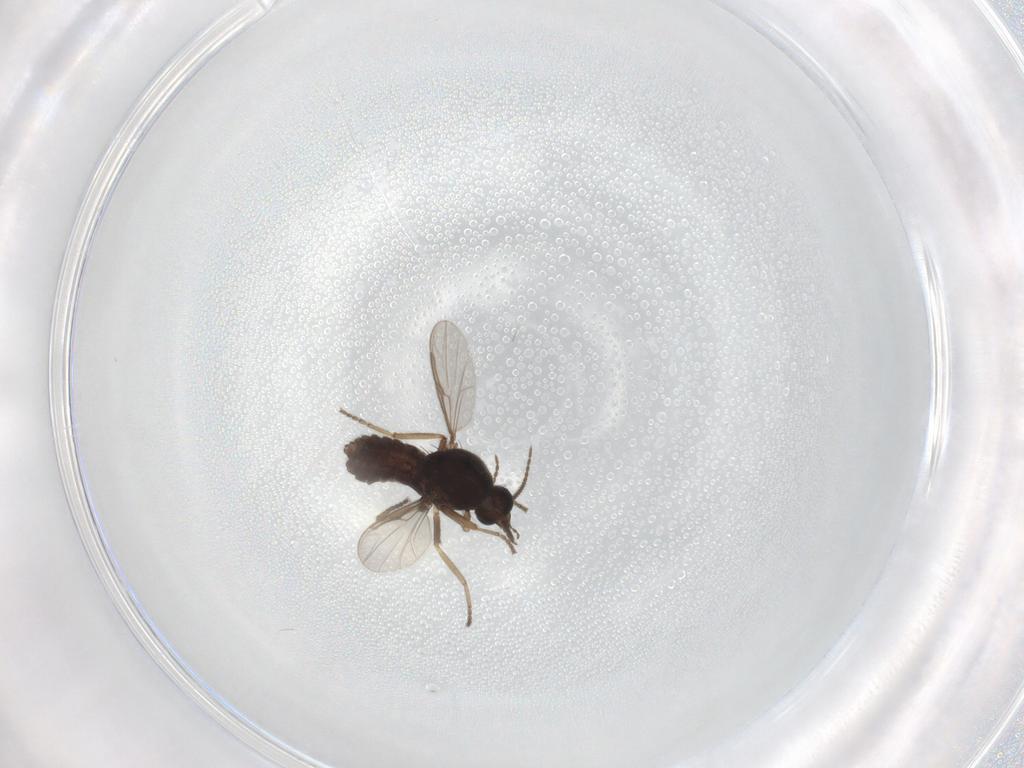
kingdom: Animalia
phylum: Arthropoda
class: Insecta
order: Diptera
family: Ceratopogonidae
